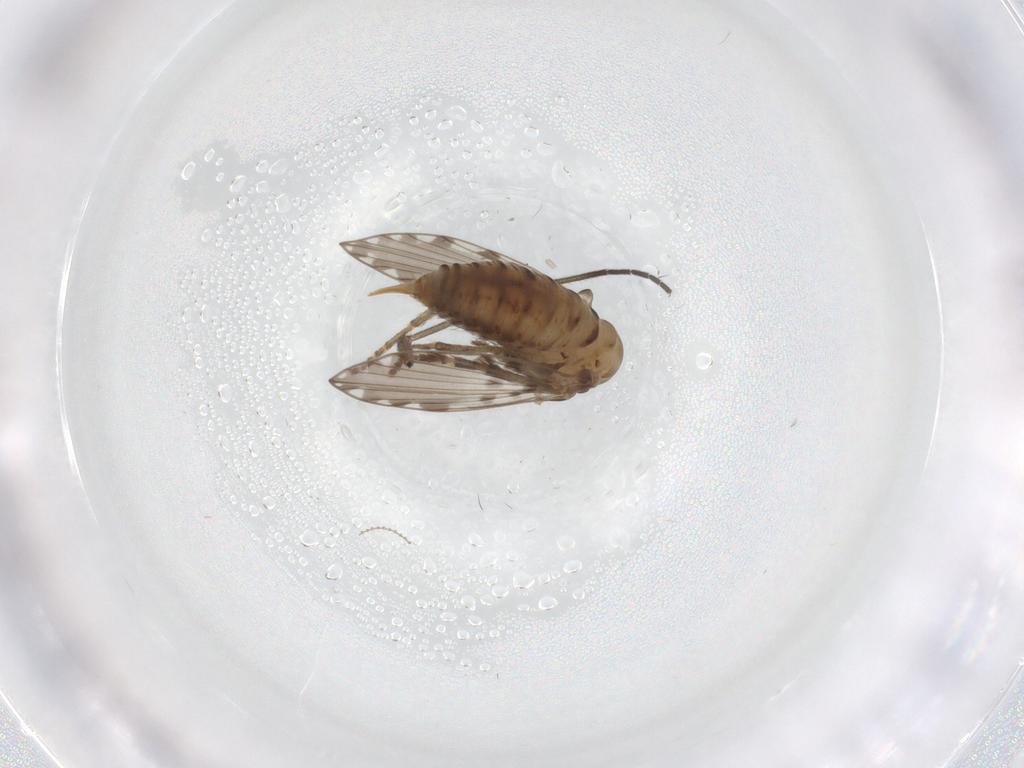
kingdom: Animalia
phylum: Arthropoda
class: Insecta
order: Diptera
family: Psychodidae
